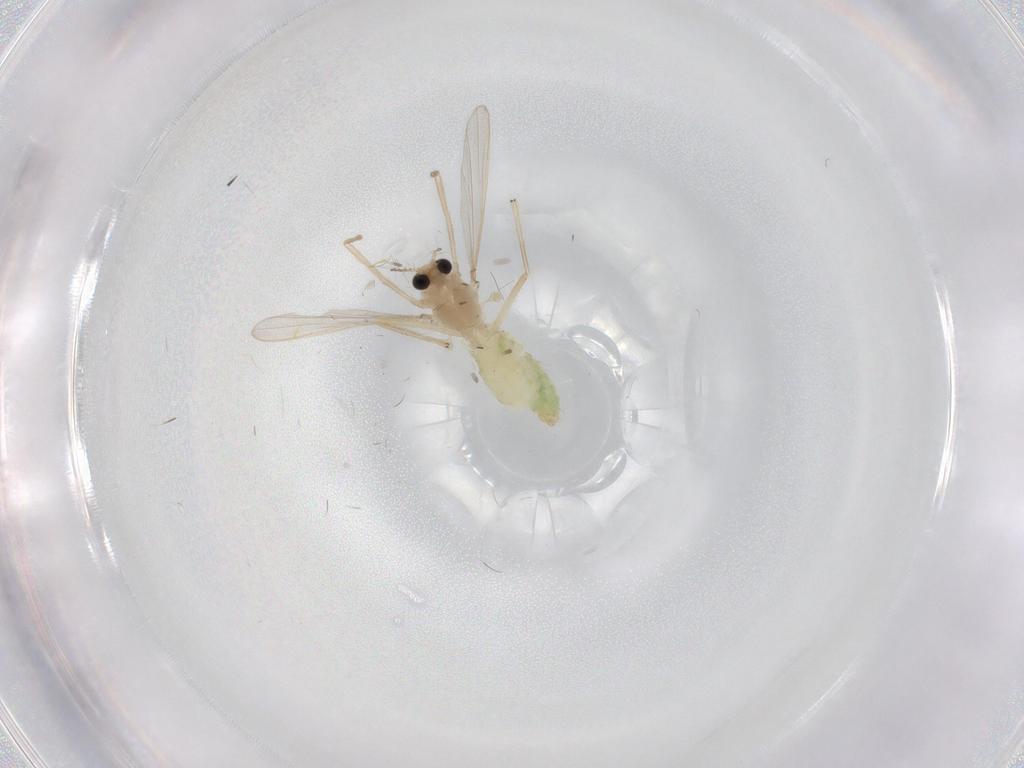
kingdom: Animalia
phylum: Arthropoda
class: Insecta
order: Diptera
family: Chironomidae
